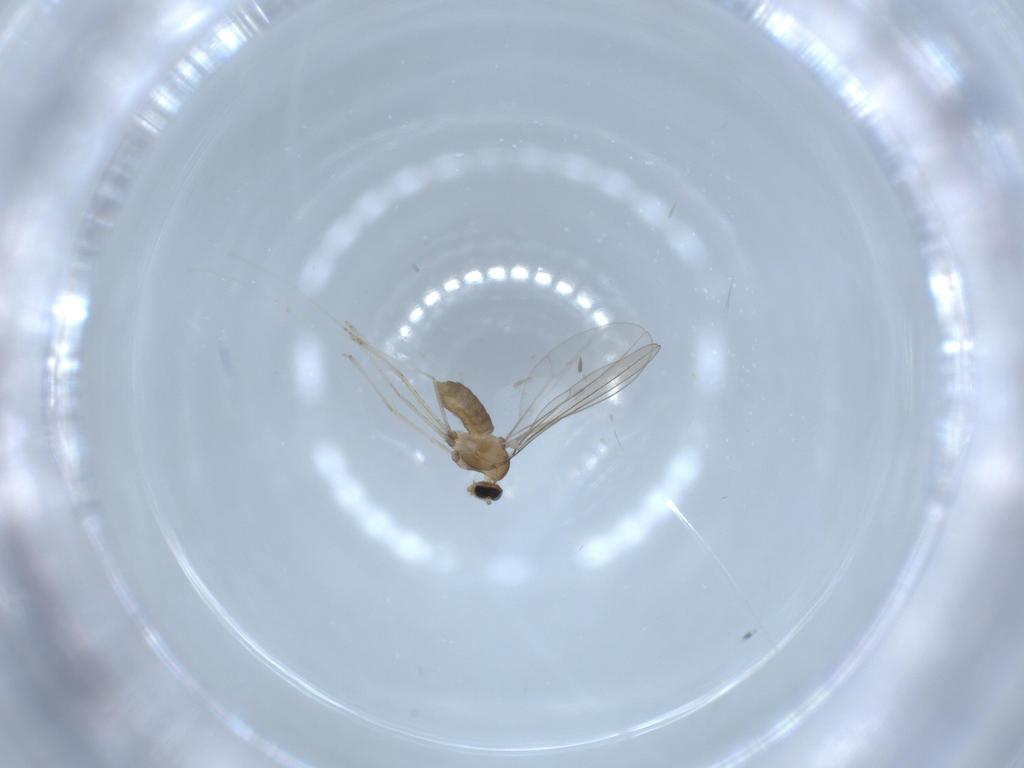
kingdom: Animalia
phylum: Arthropoda
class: Insecta
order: Diptera
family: Cecidomyiidae
